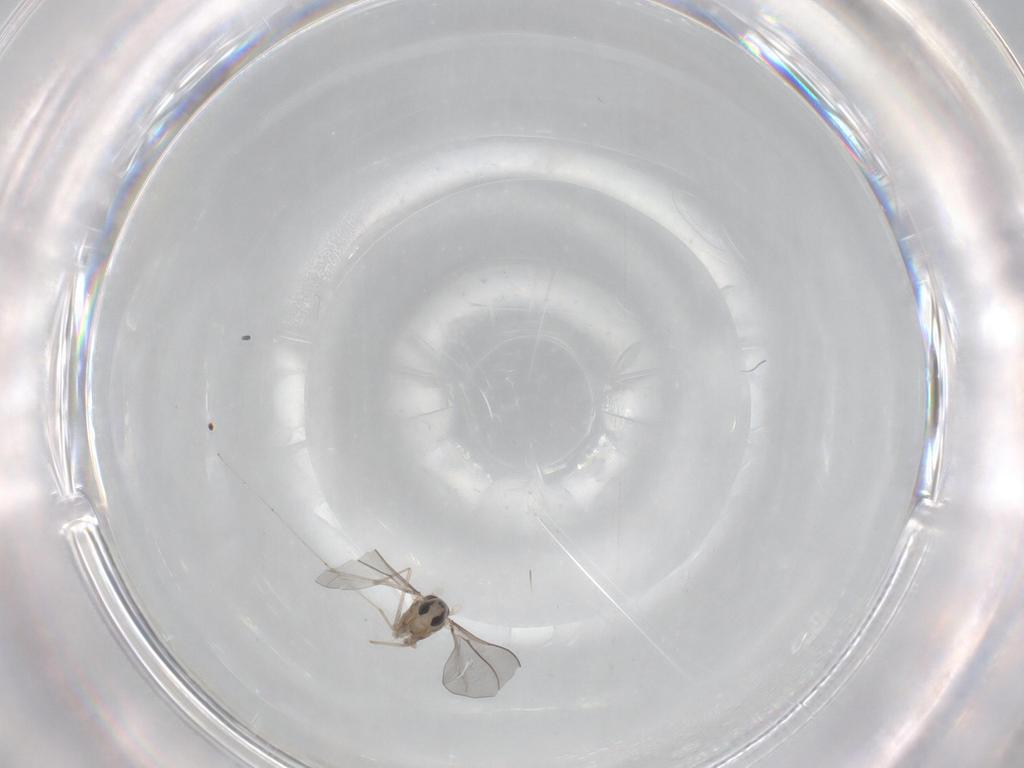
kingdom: Animalia
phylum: Arthropoda
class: Insecta
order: Diptera
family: Cecidomyiidae
